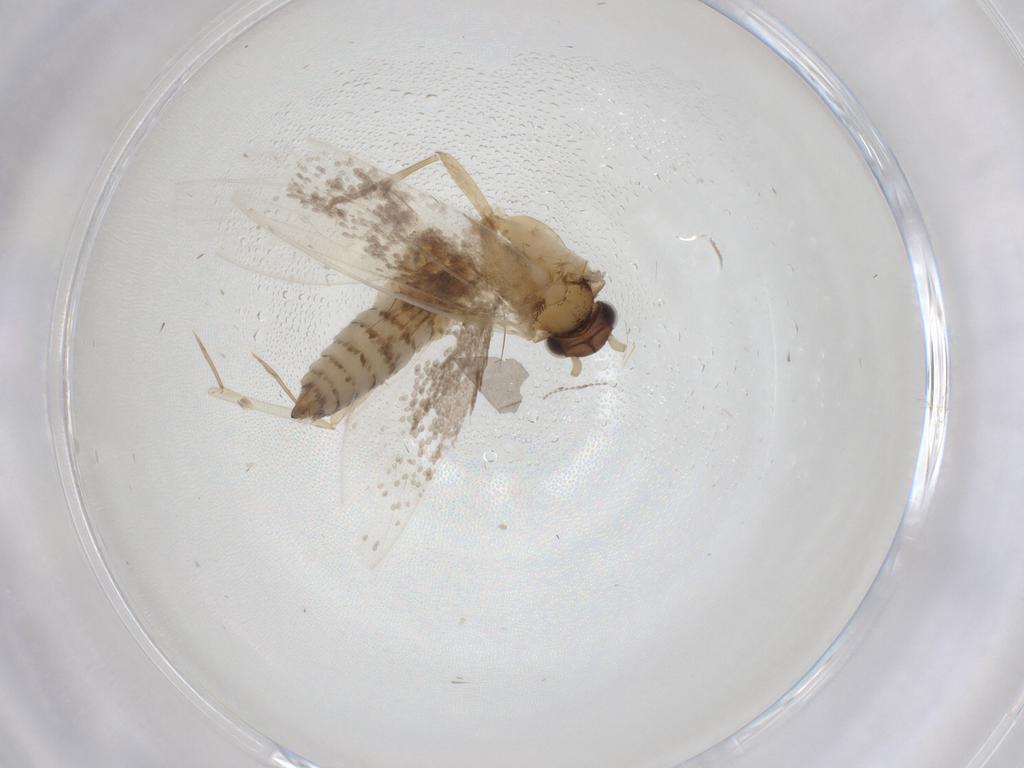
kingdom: Animalia
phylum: Arthropoda
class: Insecta
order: Lepidoptera
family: Tineidae
